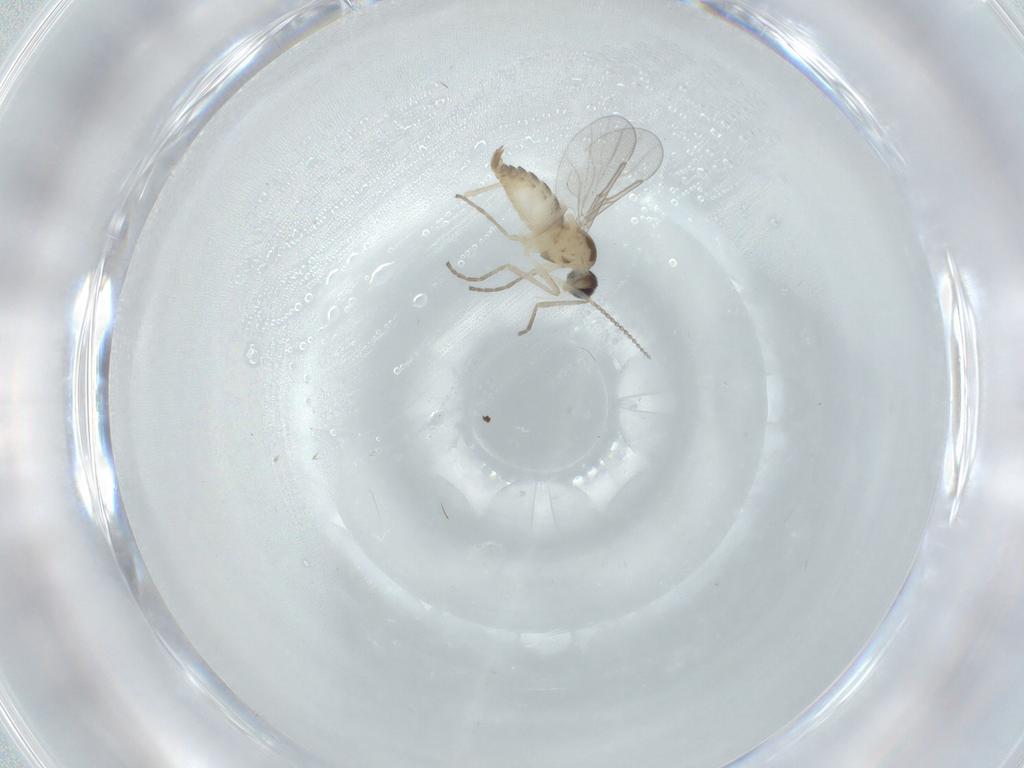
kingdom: Animalia
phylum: Arthropoda
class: Insecta
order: Diptera
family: Cecidomyiidae
